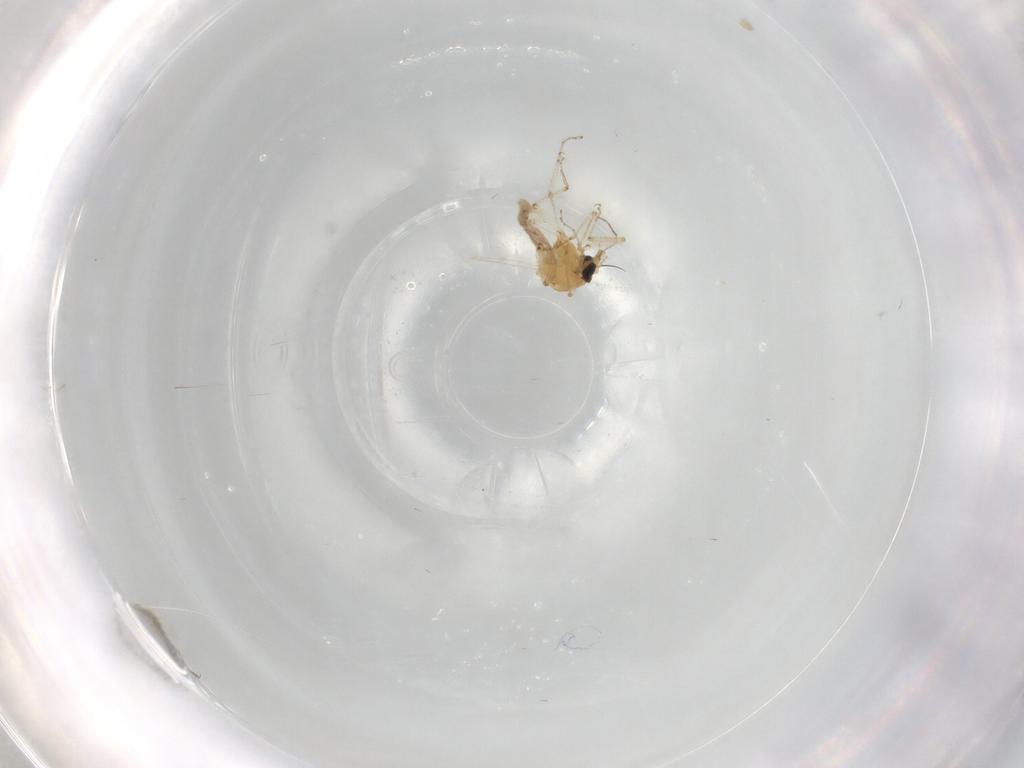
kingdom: Animalia
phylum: Arthropoda
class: Insecta
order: Diptera
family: Ceratopogonidae
